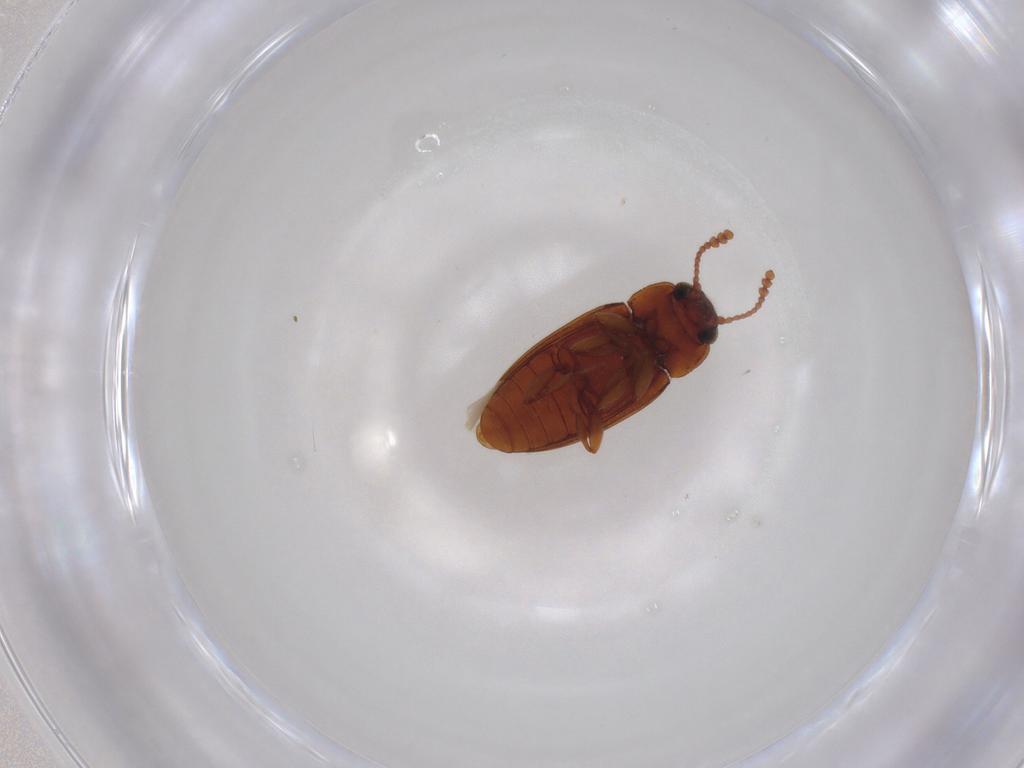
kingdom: Animalia
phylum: Arthropoda
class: Insecta
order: Coleoptera
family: Erotylidae
